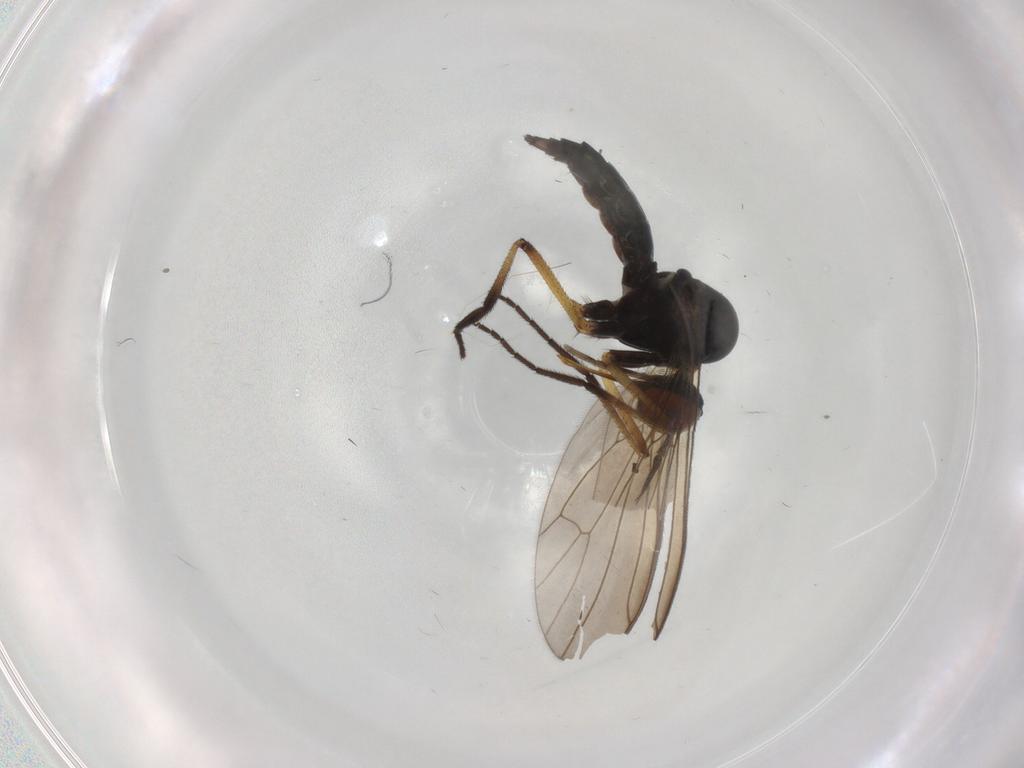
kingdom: Animalia
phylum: Arthropoda
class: Insecta
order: Diptera
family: Empididae
